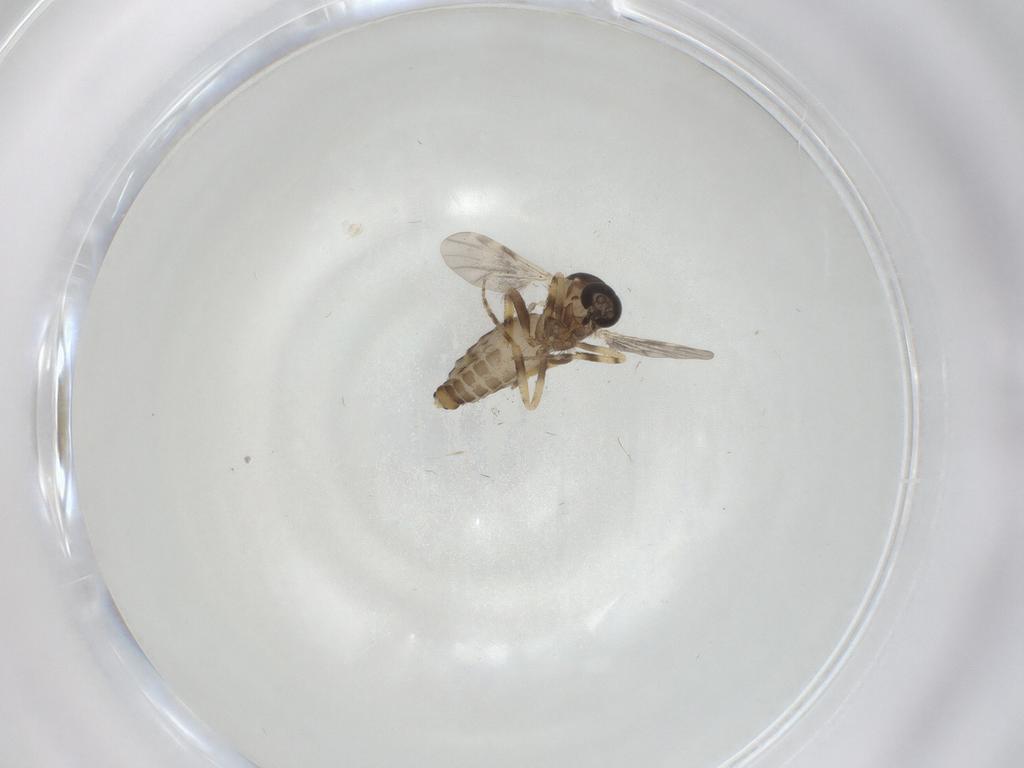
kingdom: Animalia
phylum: Arthropoda
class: Insecta
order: Diptera
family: Psychodidae
